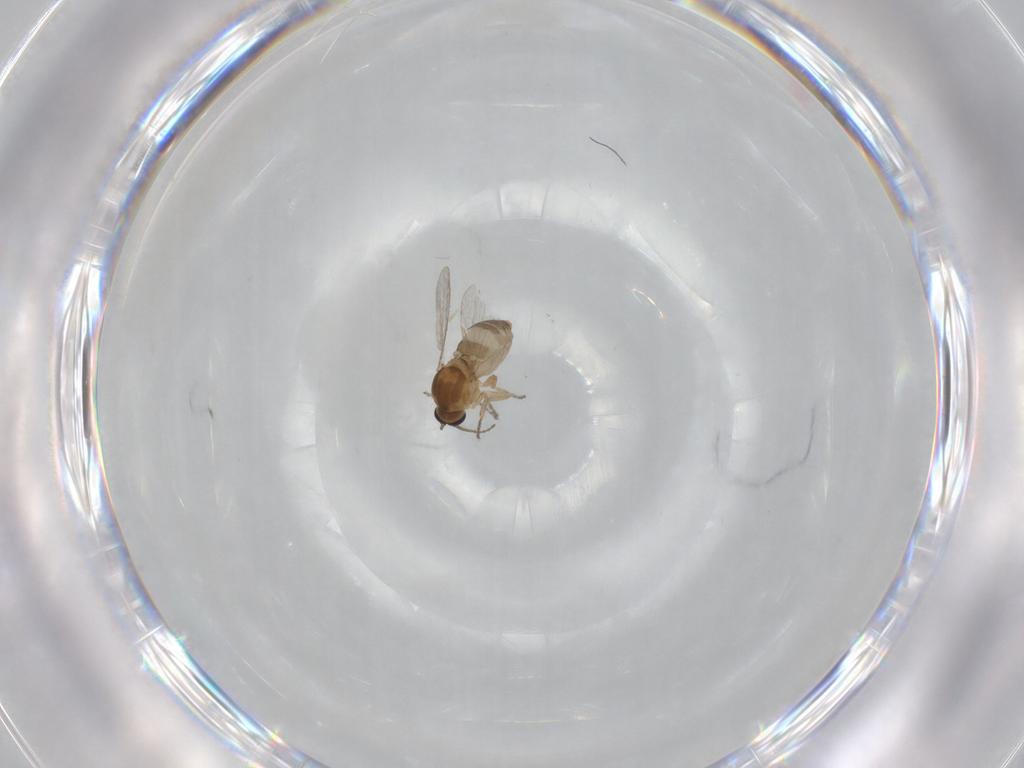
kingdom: Animalia
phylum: Arthropoda
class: Insecta
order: Diptera
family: Ceratopogonidae
